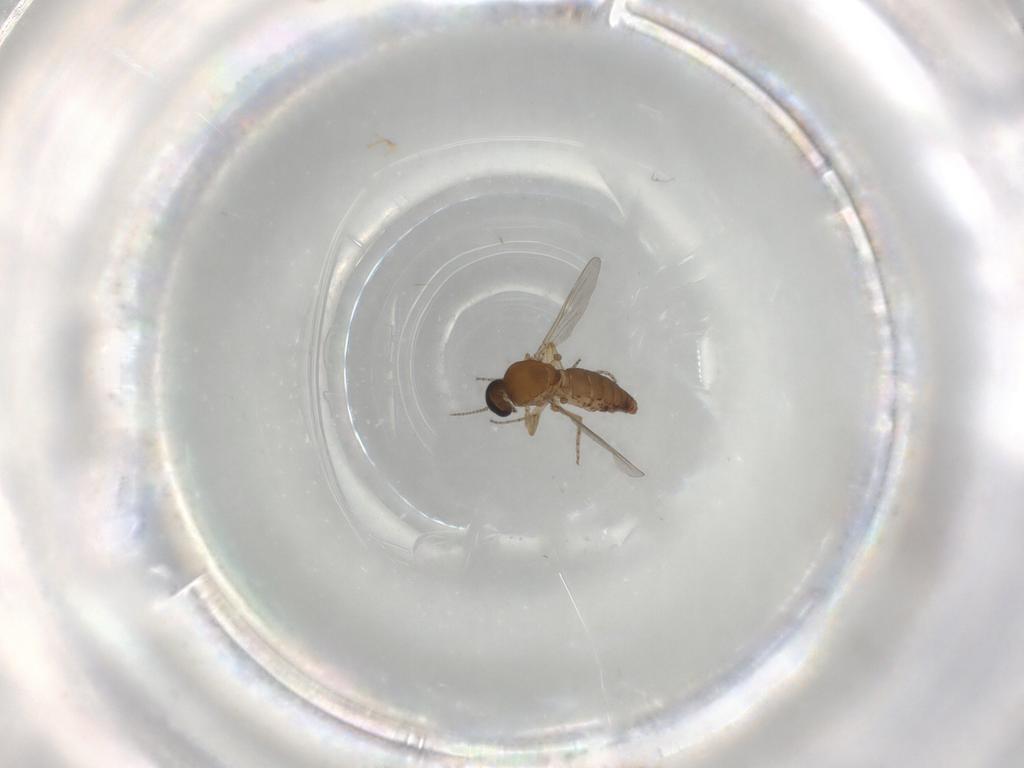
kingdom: Animalia
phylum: Arthropoda
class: Insecta
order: Diptera
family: Ceratopogonidae
